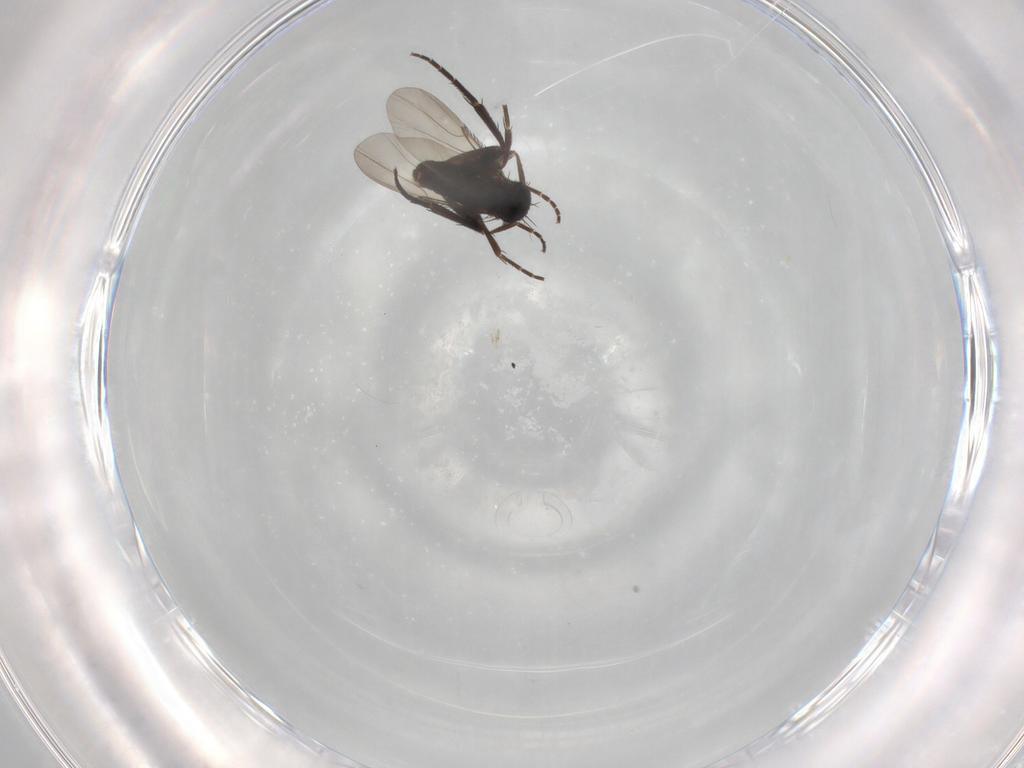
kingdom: Animalia
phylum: Arthropoda
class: Insecta
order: Diptera
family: Phoridae
